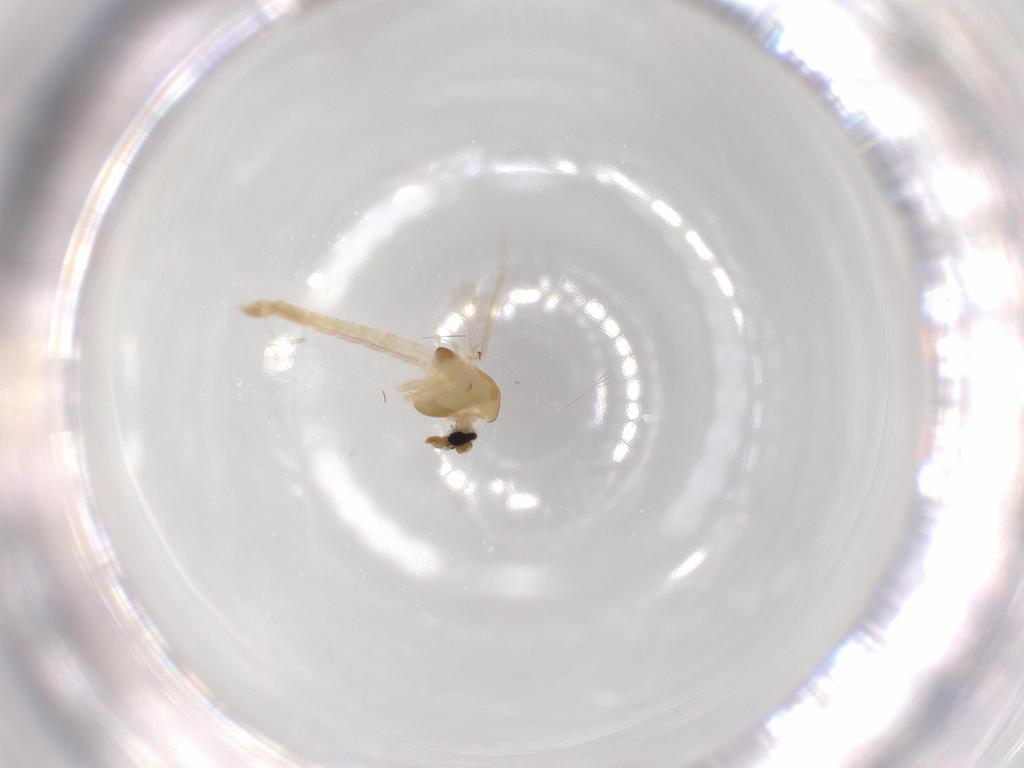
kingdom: Animalia
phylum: Arthropoda
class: Insecta
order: Diptera
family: Chironomidae
